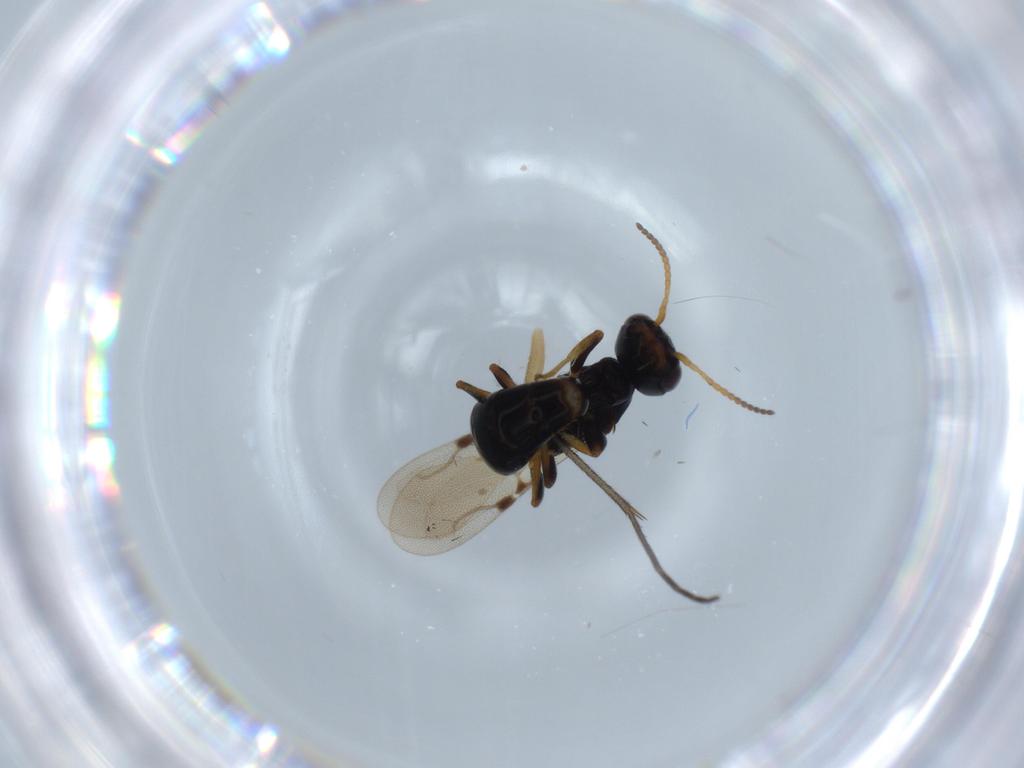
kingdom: Animalia
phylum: Arthropoda
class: Insecta
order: Hymenoptera
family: Bethylidae
